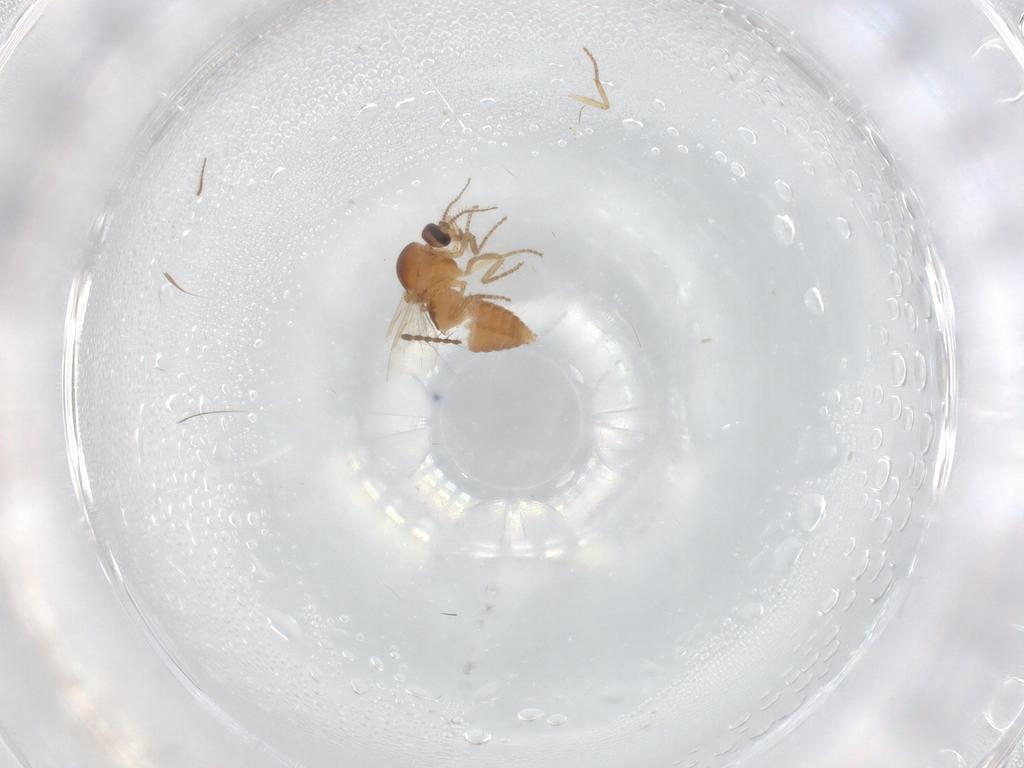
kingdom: Animalia
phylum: Arthropoda
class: Insecta
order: Diptera
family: Ceratopogonidae
